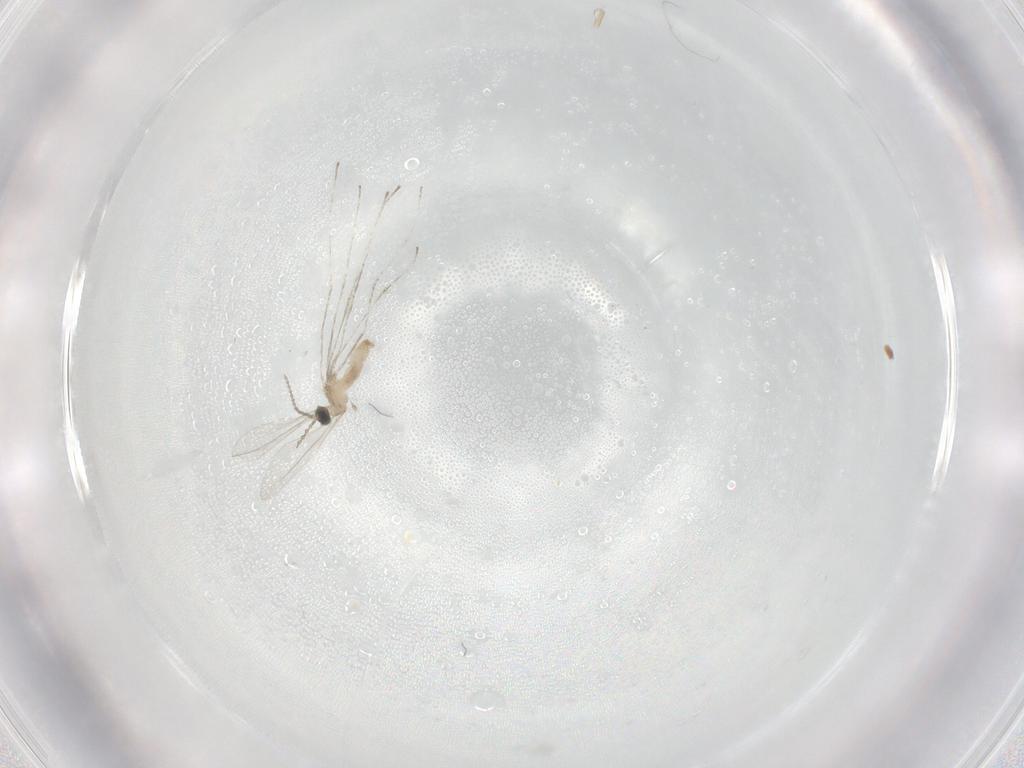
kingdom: Animalia
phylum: Arthropoda
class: Insecta
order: Diptera
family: Cecidomyiidae
